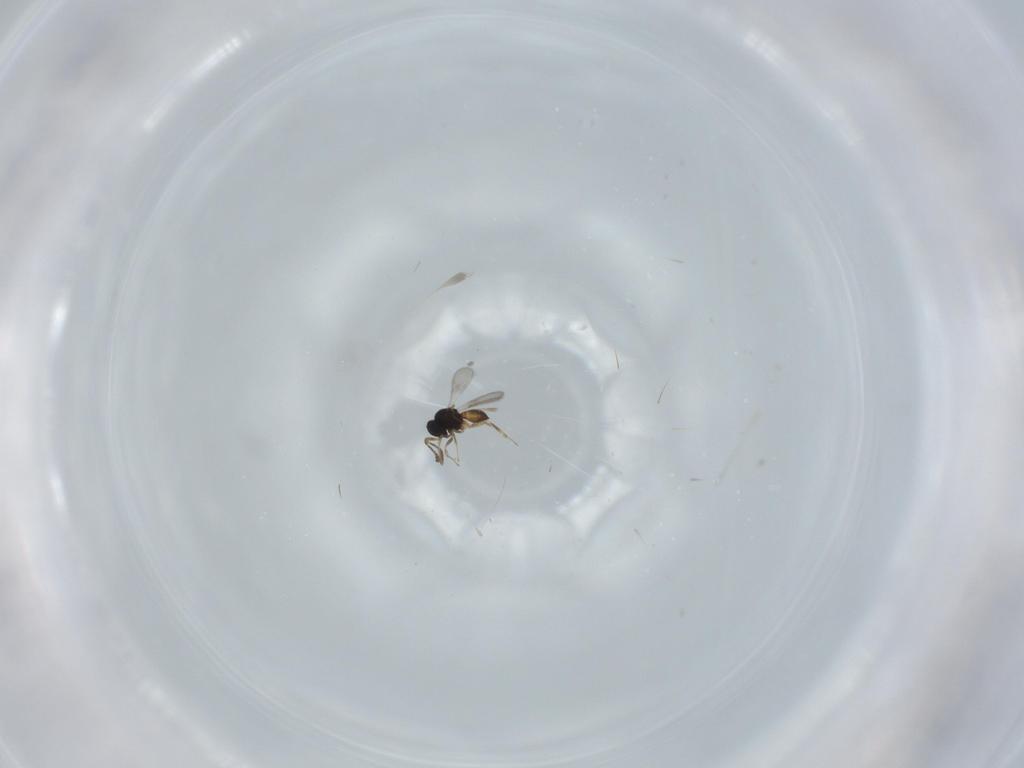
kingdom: Animalia
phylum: Arthropoda
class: Insecta
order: Hymenoptera
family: Scelionidae
